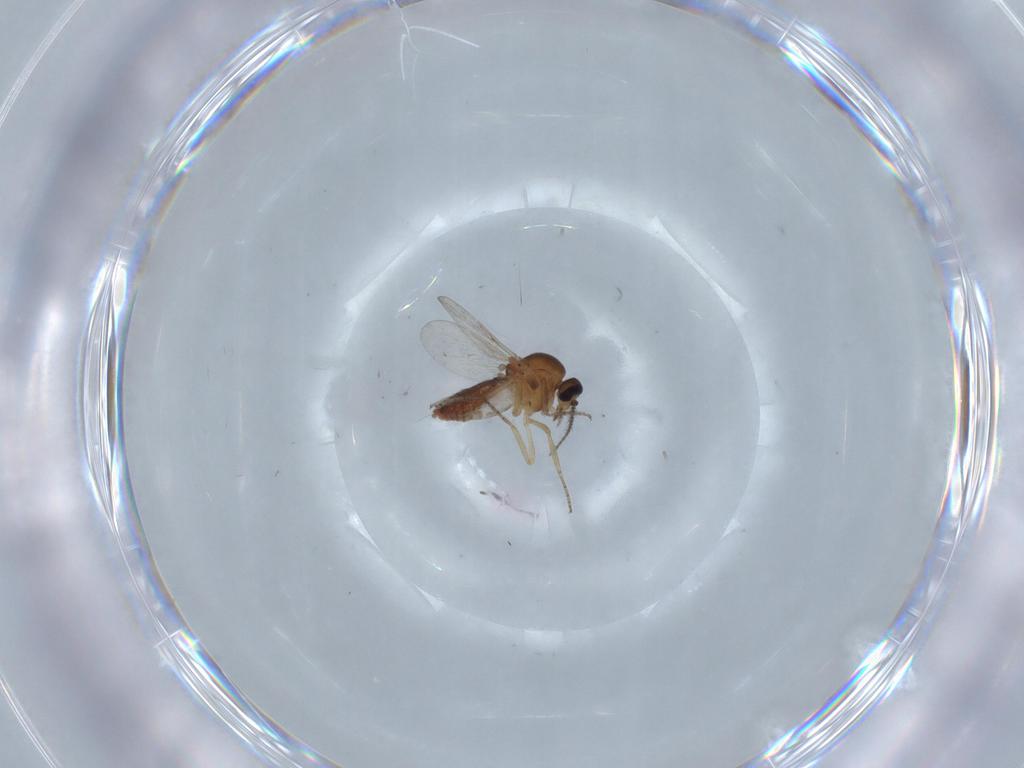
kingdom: Animalia
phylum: Arthropoda
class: Insecta
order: Diptera
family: Ceratopogonidae
